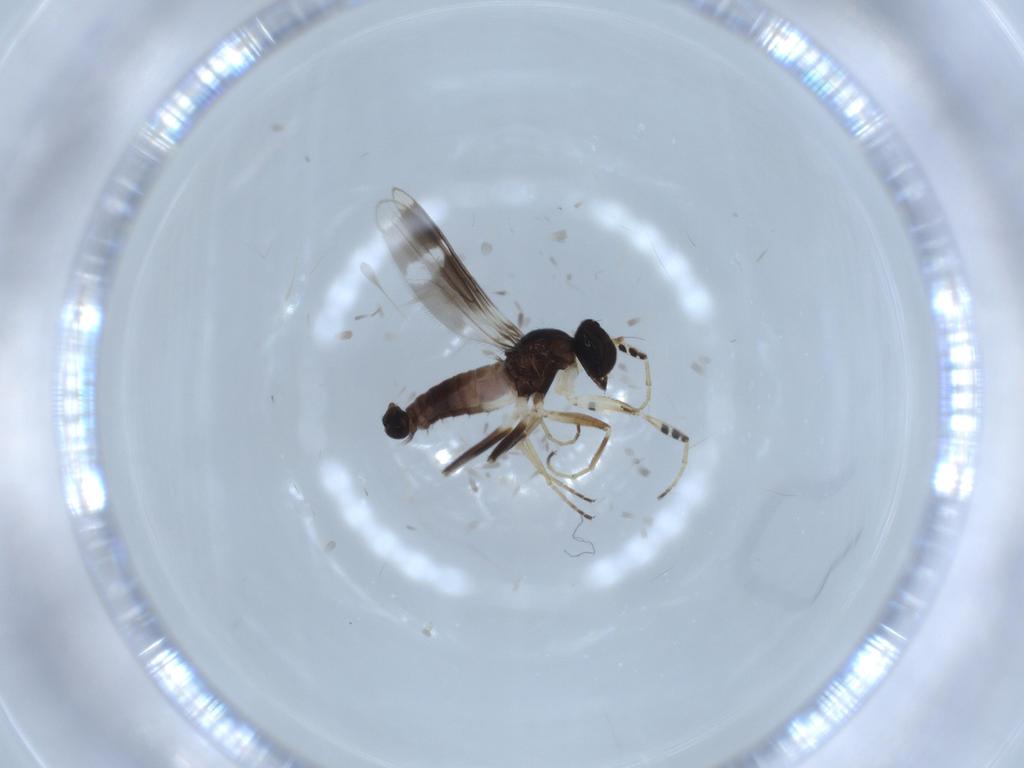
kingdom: Animalia
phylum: Arthropoda
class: Insecta
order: Diptera
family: Hybotidae
